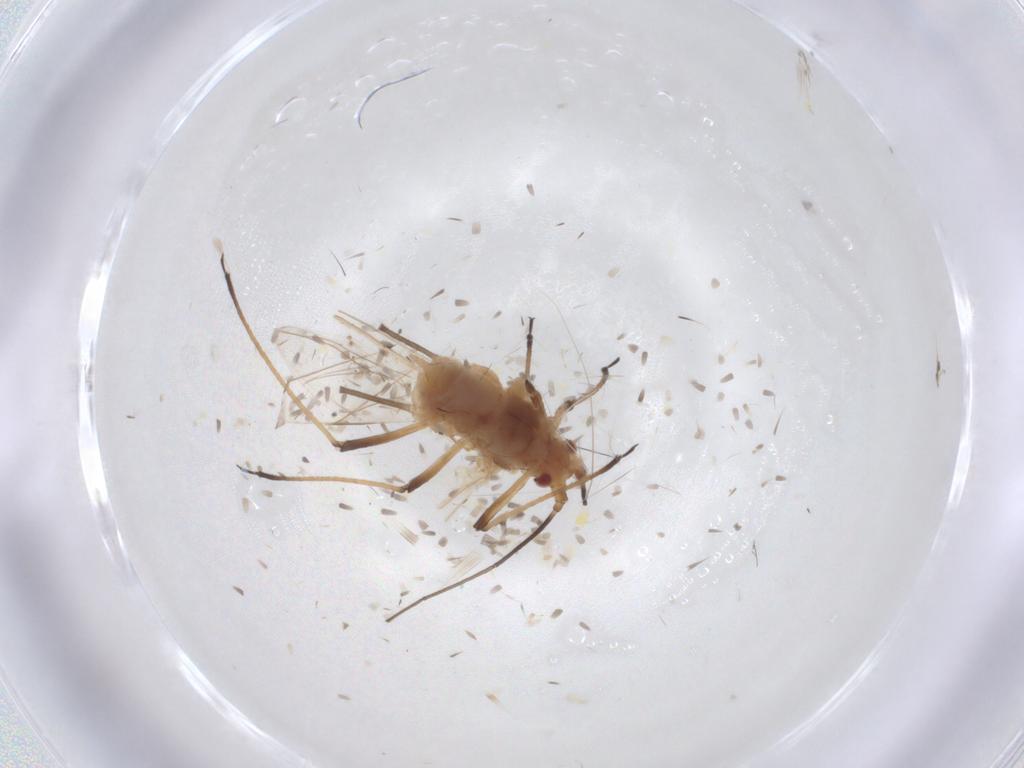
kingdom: Animalia
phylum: Arthropoda
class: Insecta
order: Hemiptera
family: Aphididae
